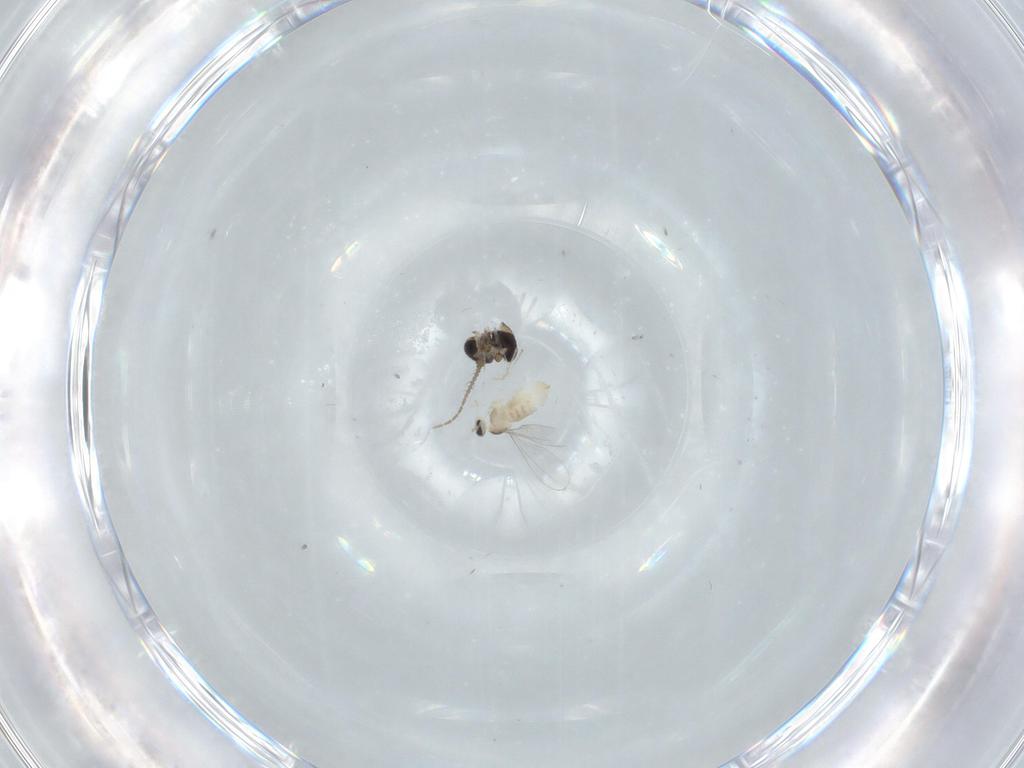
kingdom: Animalia
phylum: Arthropoda
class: Insecta
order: Diptera
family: Ceratopogonidae
